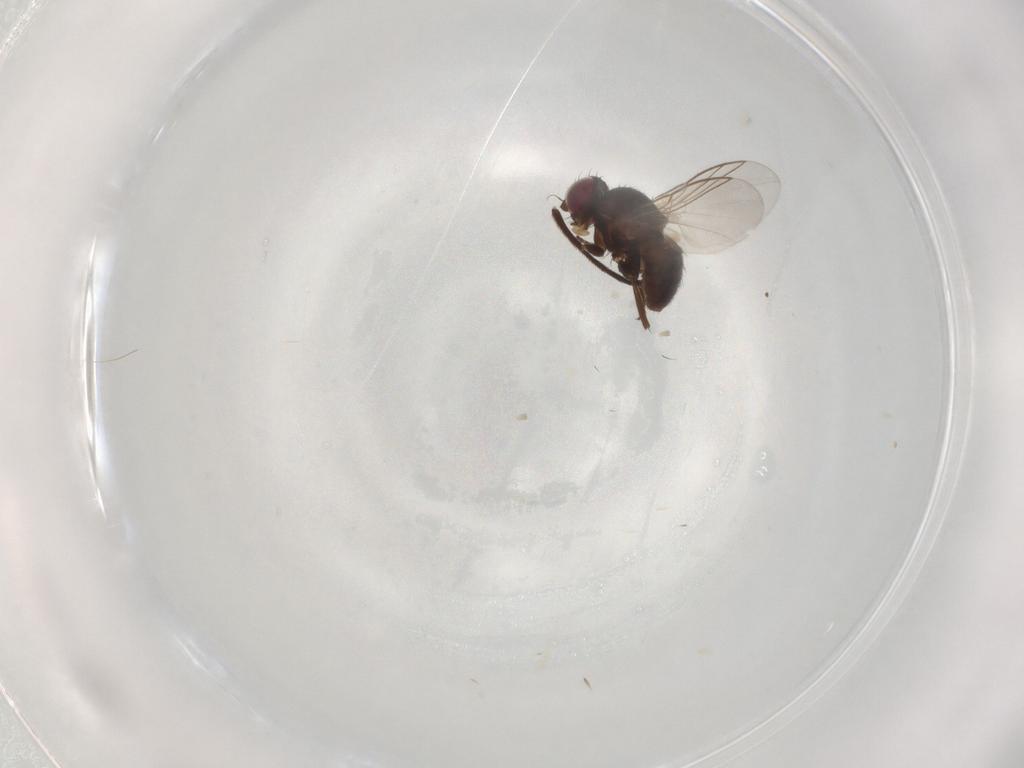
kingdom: Animalia
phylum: Arthropoda
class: Insecta
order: Diptera
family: Dolichopodidae
